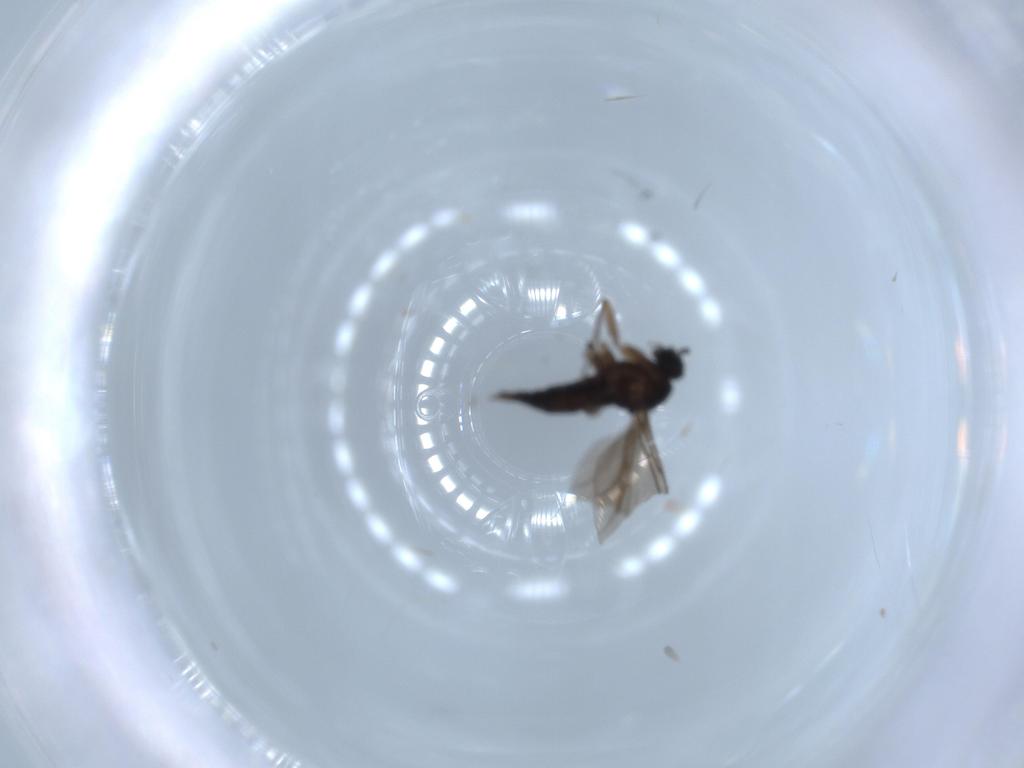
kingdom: Animalia
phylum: Arthropoda
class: Insecta
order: Diptera
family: Sciaridae
